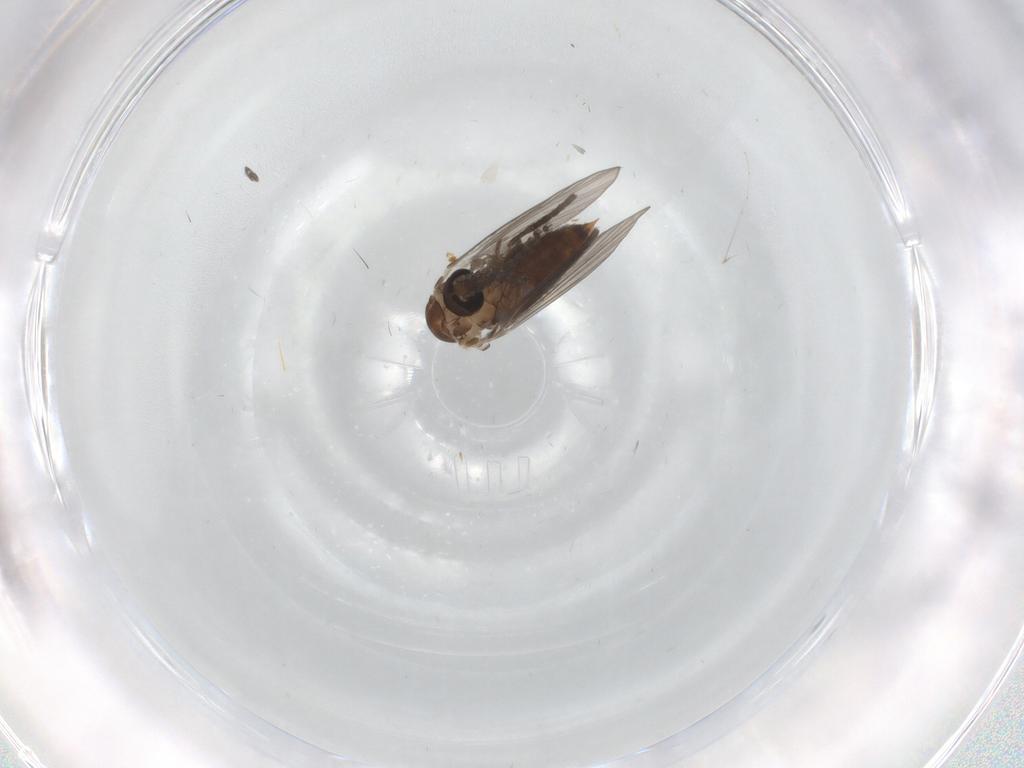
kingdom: Animalia
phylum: Arthropoda
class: Insecta
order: Diptera
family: Psychodidae
